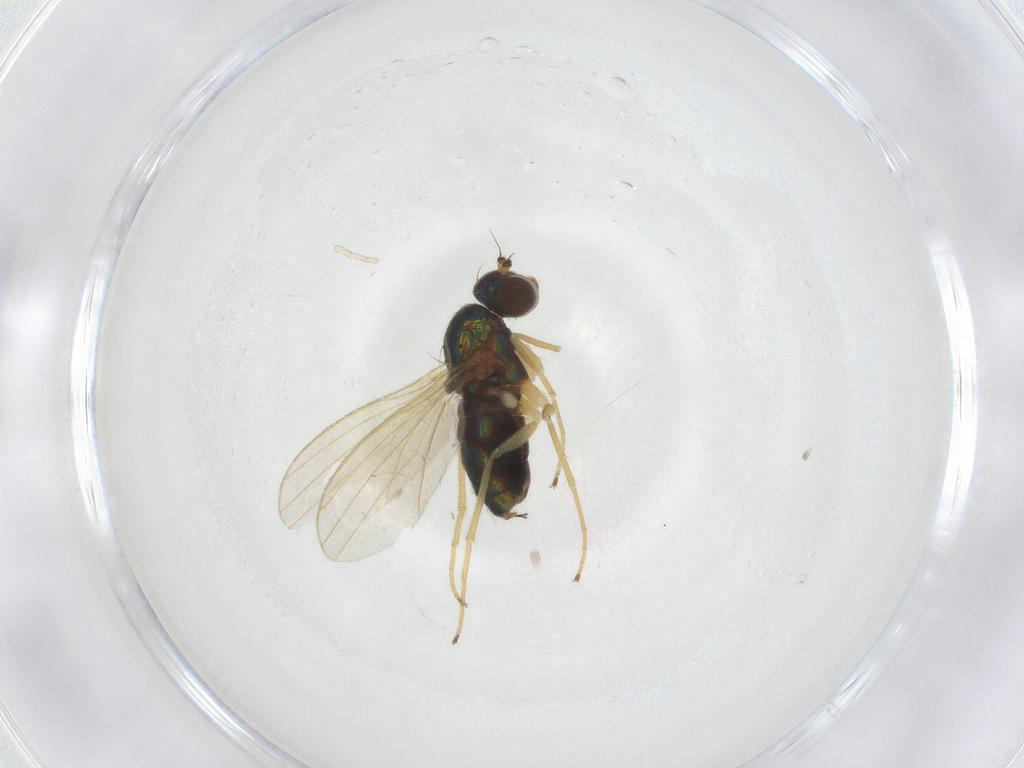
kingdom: Animalia
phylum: Arthropoda
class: Insecta
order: Diptera
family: Dolichopodidae
